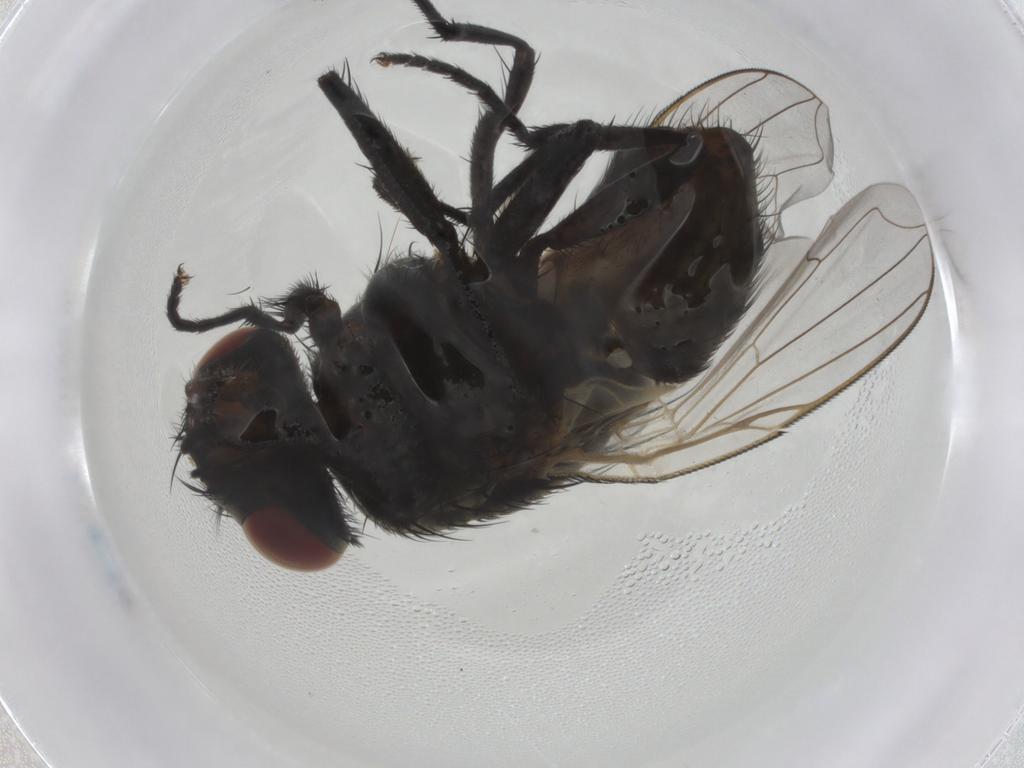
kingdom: Animalia
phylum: Arthropoda
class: Insecta
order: Diptera
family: Muscidae
